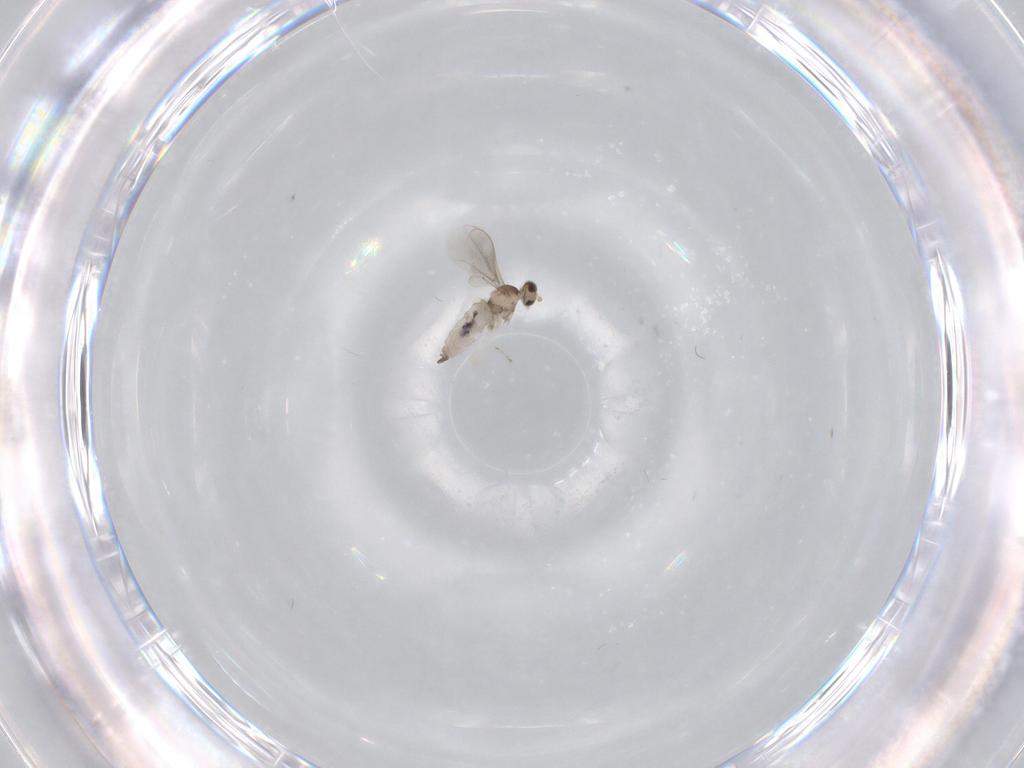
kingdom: Animalia
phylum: Arthropoda
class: Insecta
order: Diptera
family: Cecidomyiidae
